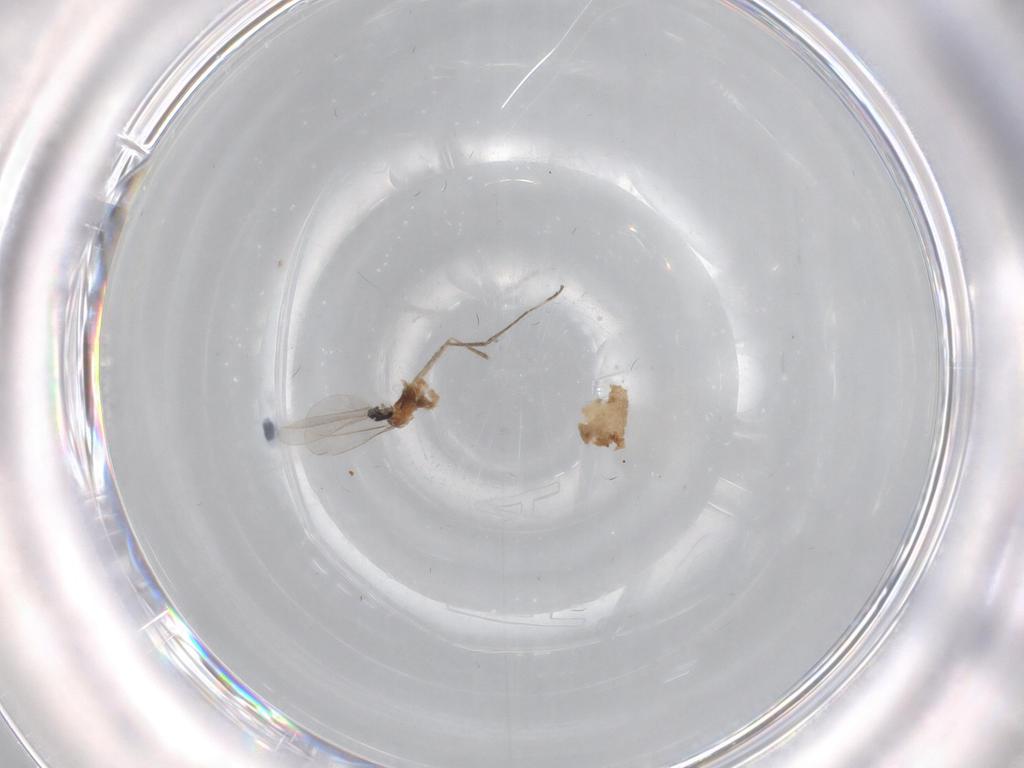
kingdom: Animalia
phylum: Arthropoda
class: Insecta
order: Diptera
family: Cecidomyiidae
